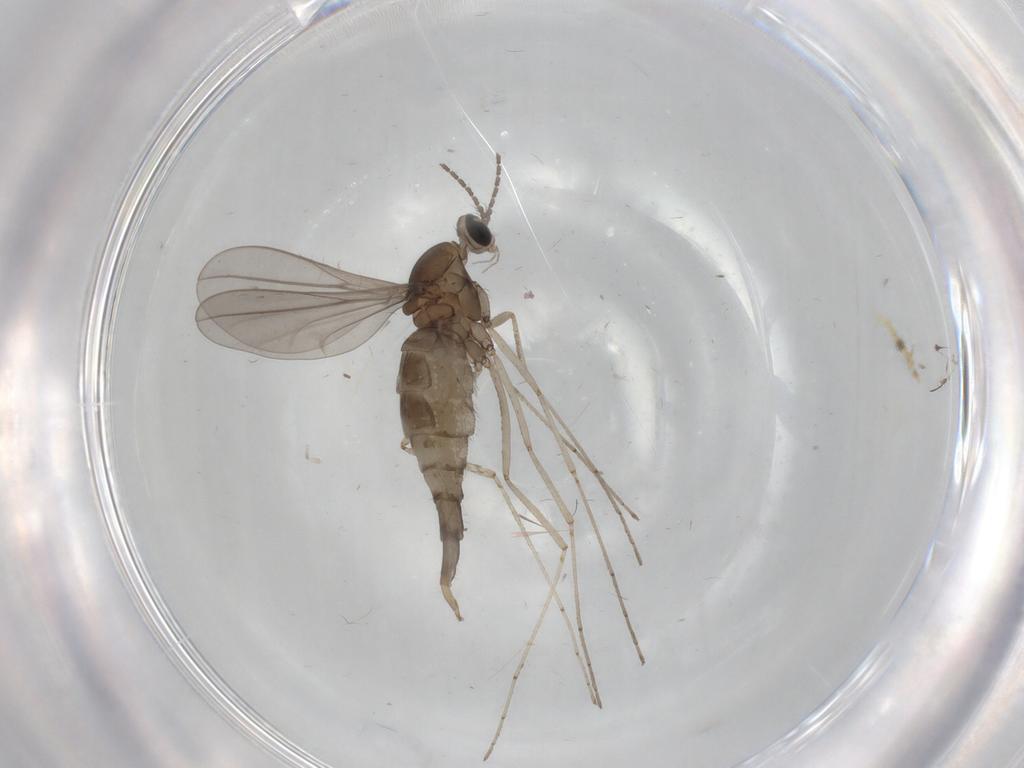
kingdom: Animalia
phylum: Arthropoda
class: Insecta
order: Diptera
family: Cecidomyiidae
